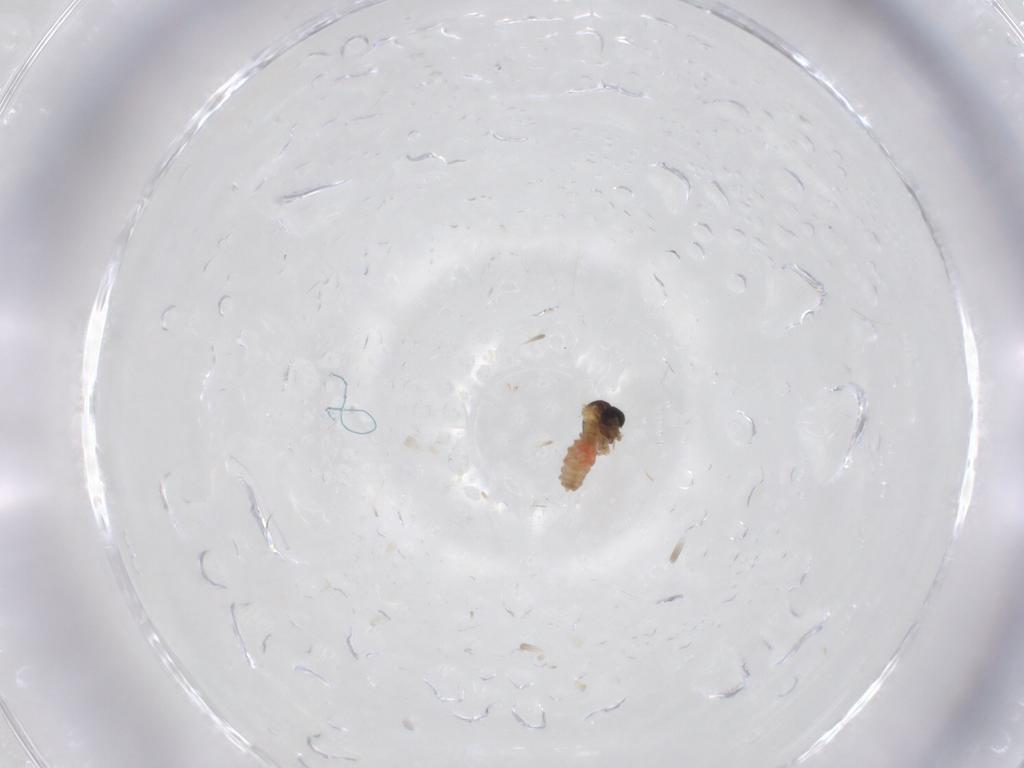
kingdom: Animalia
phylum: Arthropoda
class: Insecta
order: Diptera
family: Cecidomyiidae
